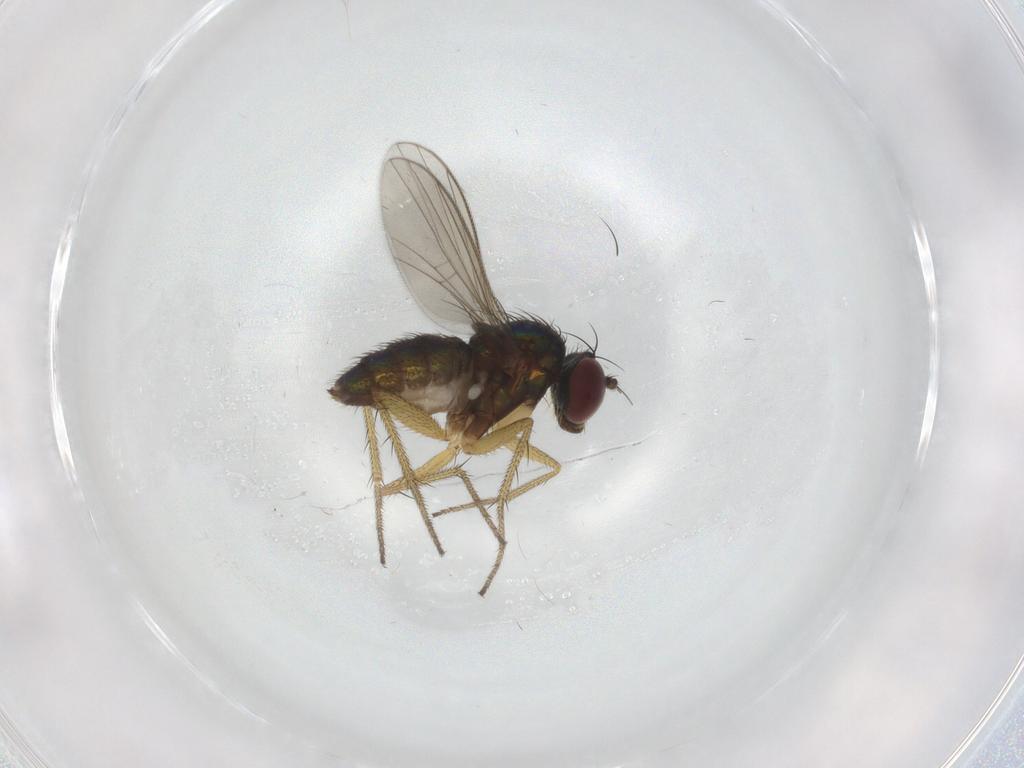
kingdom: Animalia
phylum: Arthropoda
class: Insecta
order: Diptera
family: Dolichopodidae
